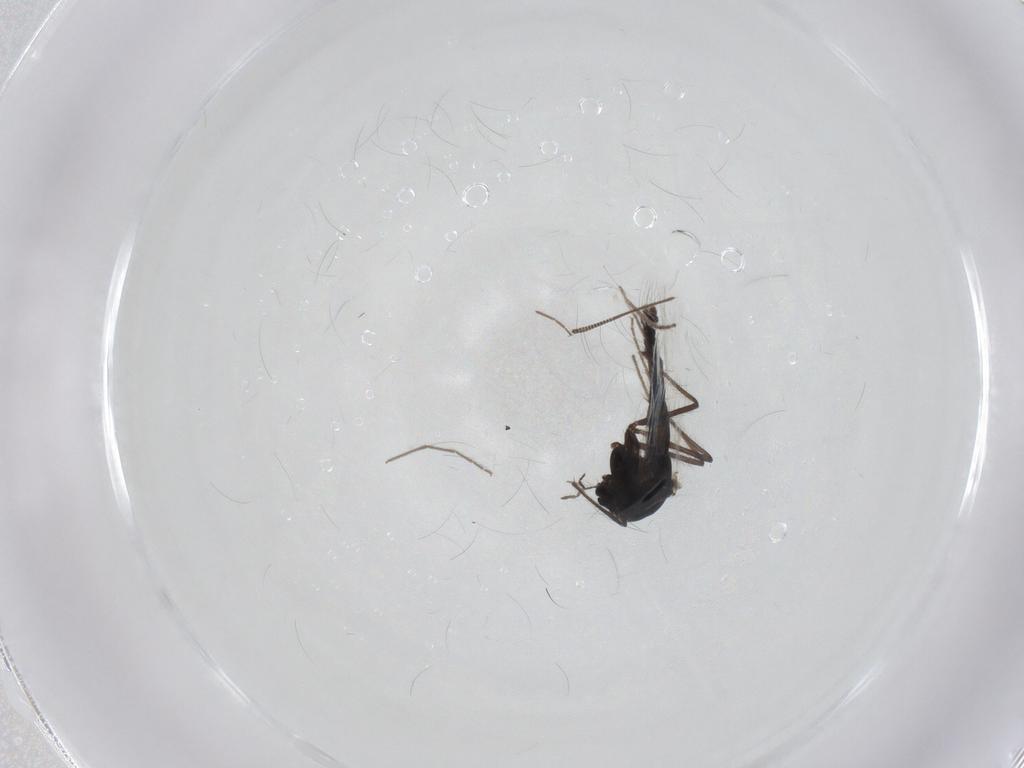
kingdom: Animalia
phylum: Arthropoda
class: Insecta
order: Diptera
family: Chironomidae
